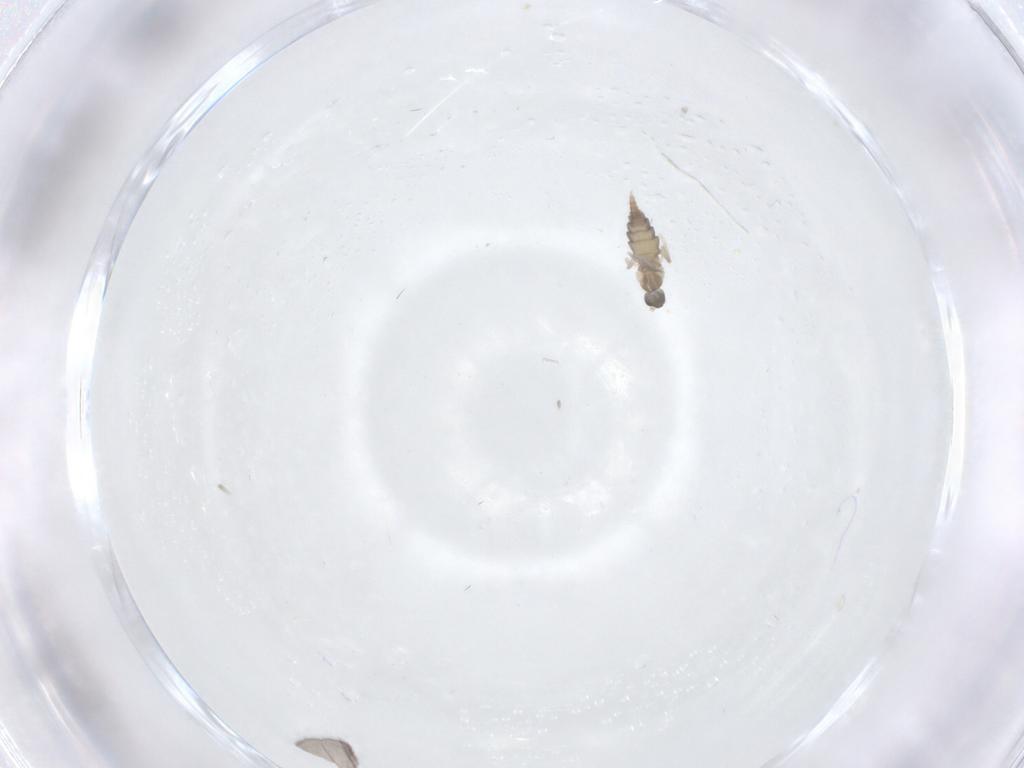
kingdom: Animalia
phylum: Arthropoda
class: Insecta
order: Diptera
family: Cecidomyiidae
